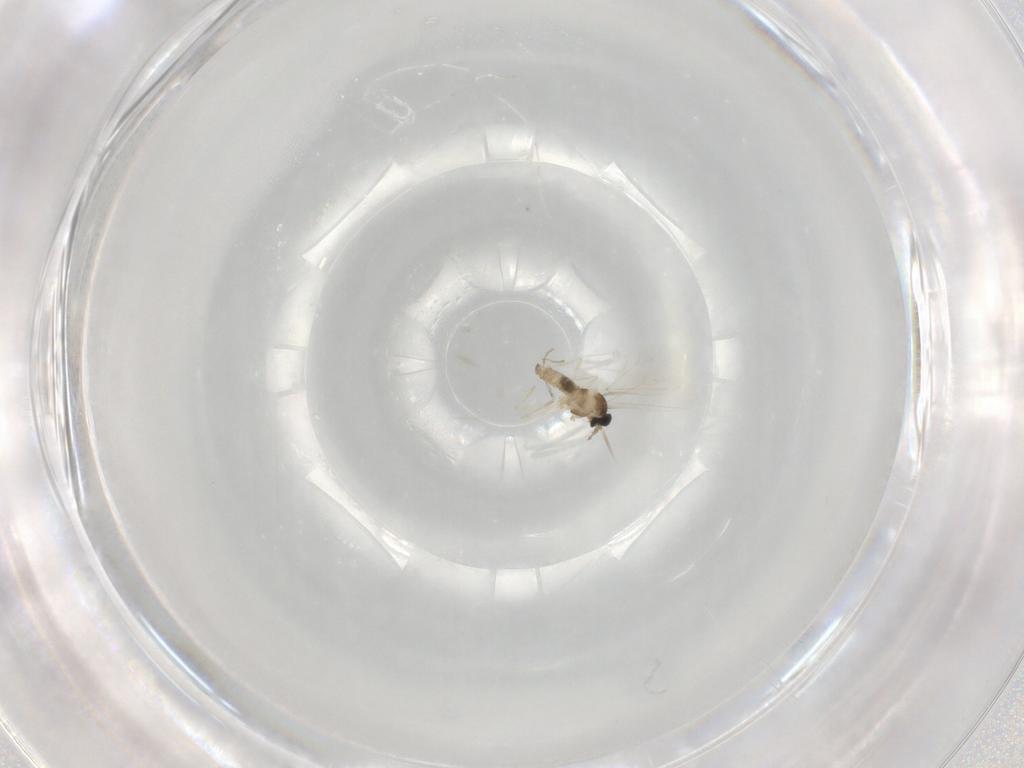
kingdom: Animalia
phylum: Arthropoda
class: Insecta
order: Diptera
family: Cecidomyiidae
